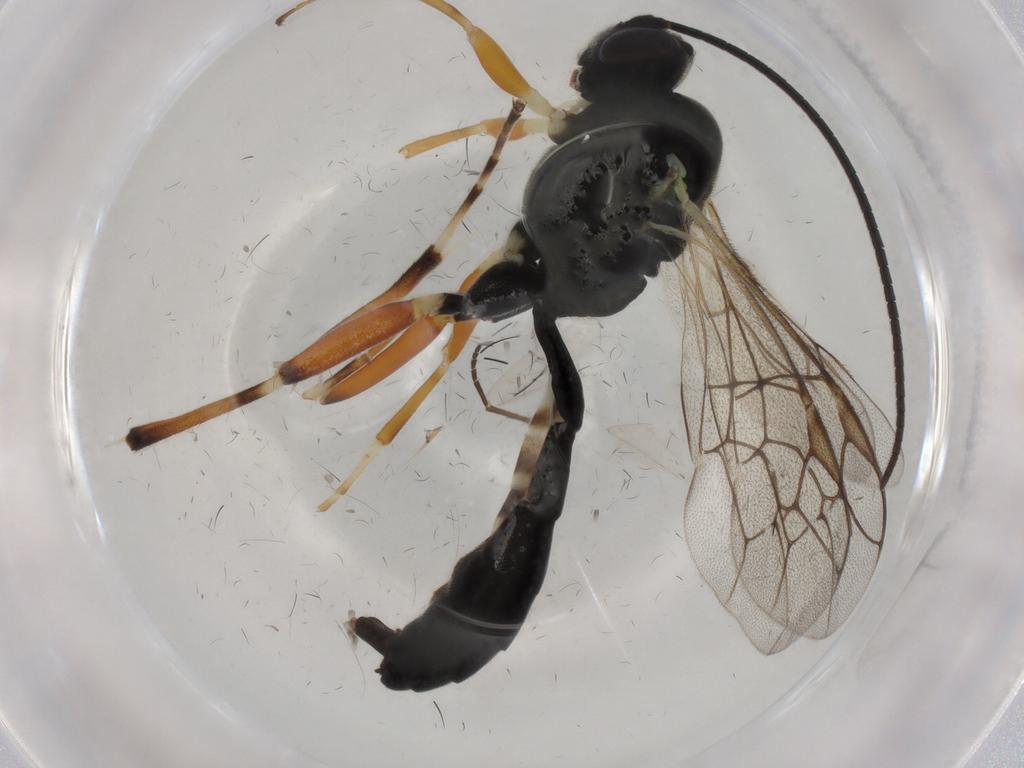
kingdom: Animalia
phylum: Arthropoda
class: Insecta
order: Hymenoptera
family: Ichneumonidae
